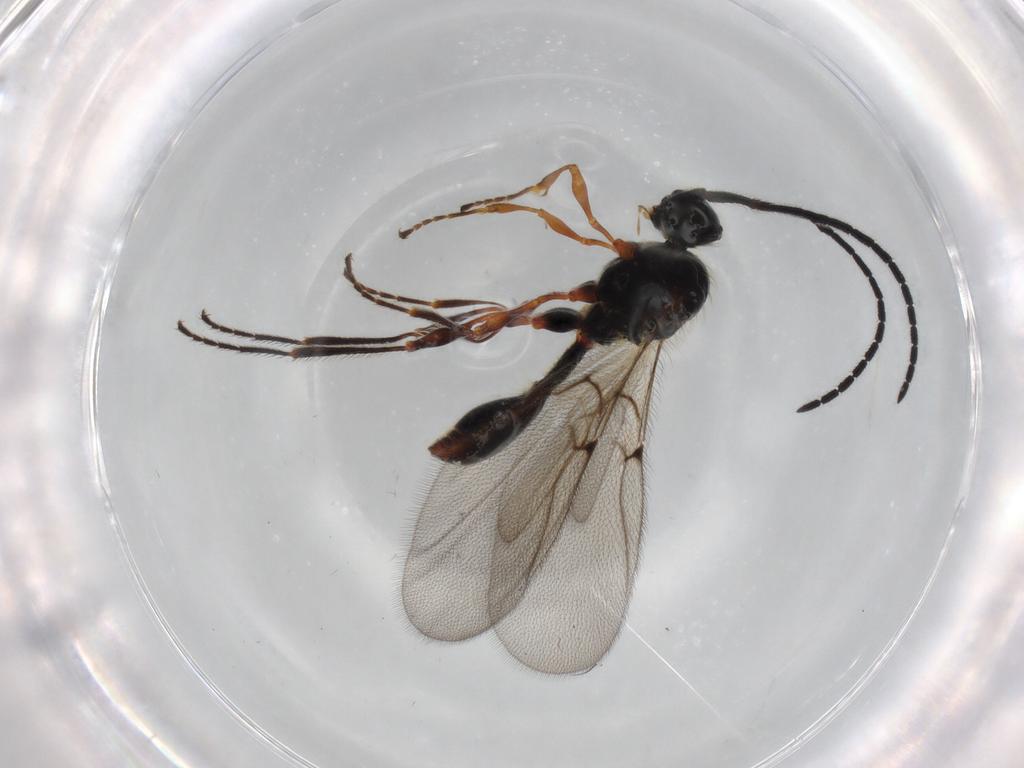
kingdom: Animalia
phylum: Arthropoda
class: Insecta
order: Hymenoptera
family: Diapriidae
